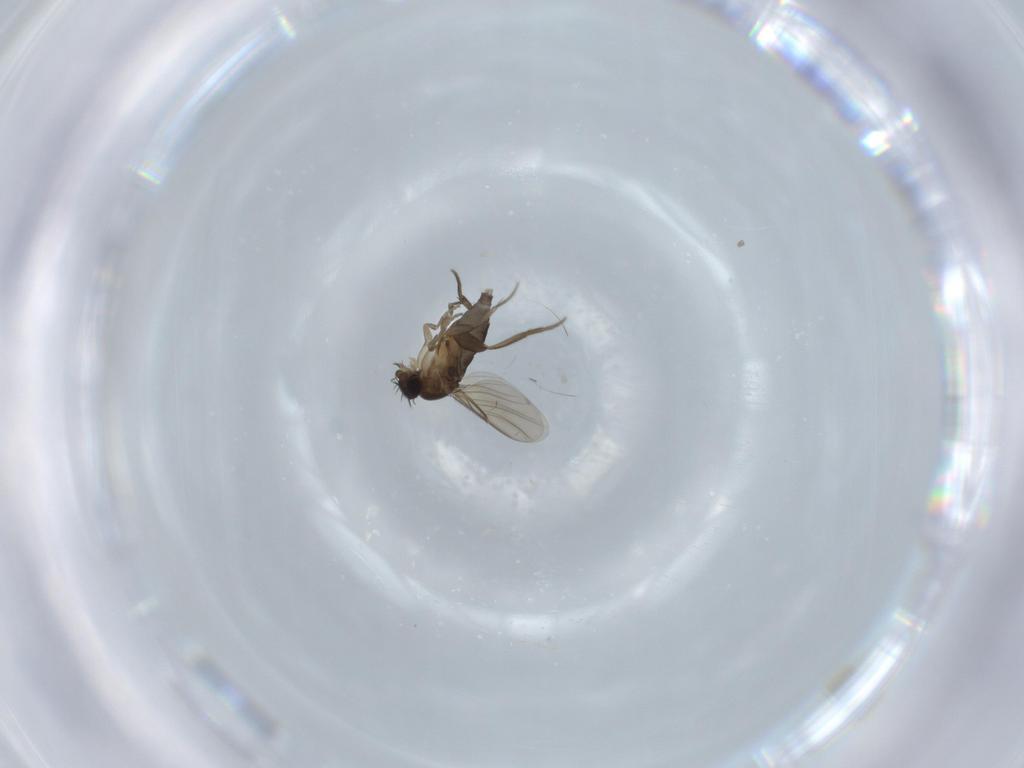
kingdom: Animalia
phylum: Arthropoda
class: Insecta
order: Diptera
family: Phoridae
